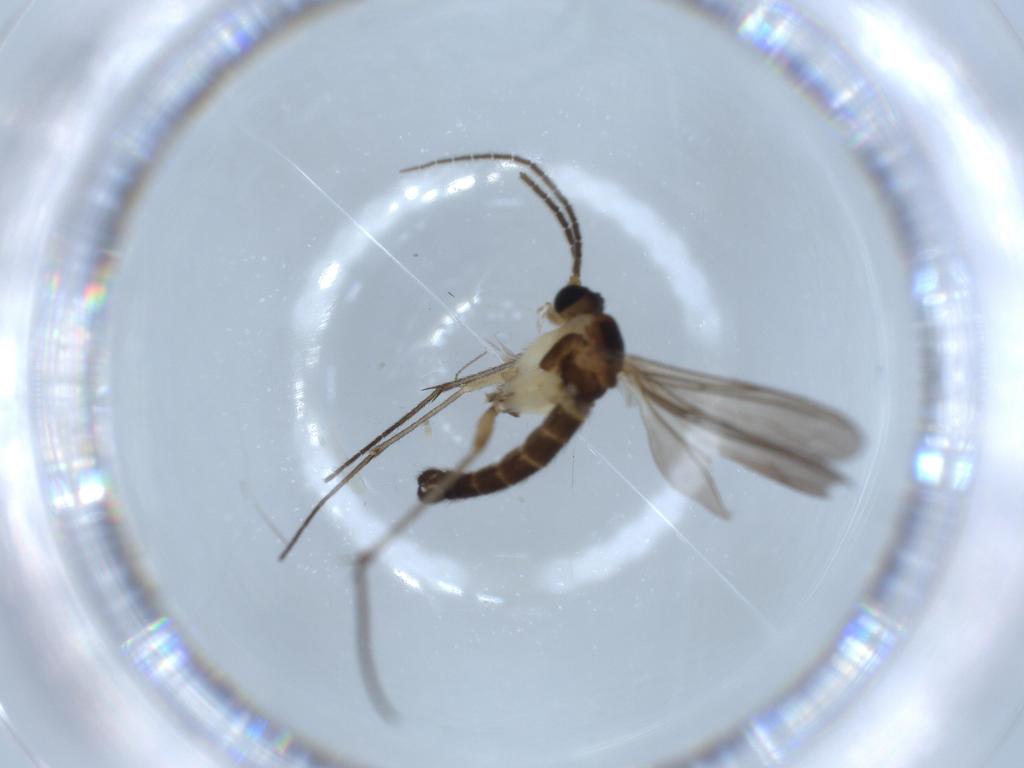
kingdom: Animalia
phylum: Arthropoda
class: Insecta
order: Diptera
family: Sciaridae
